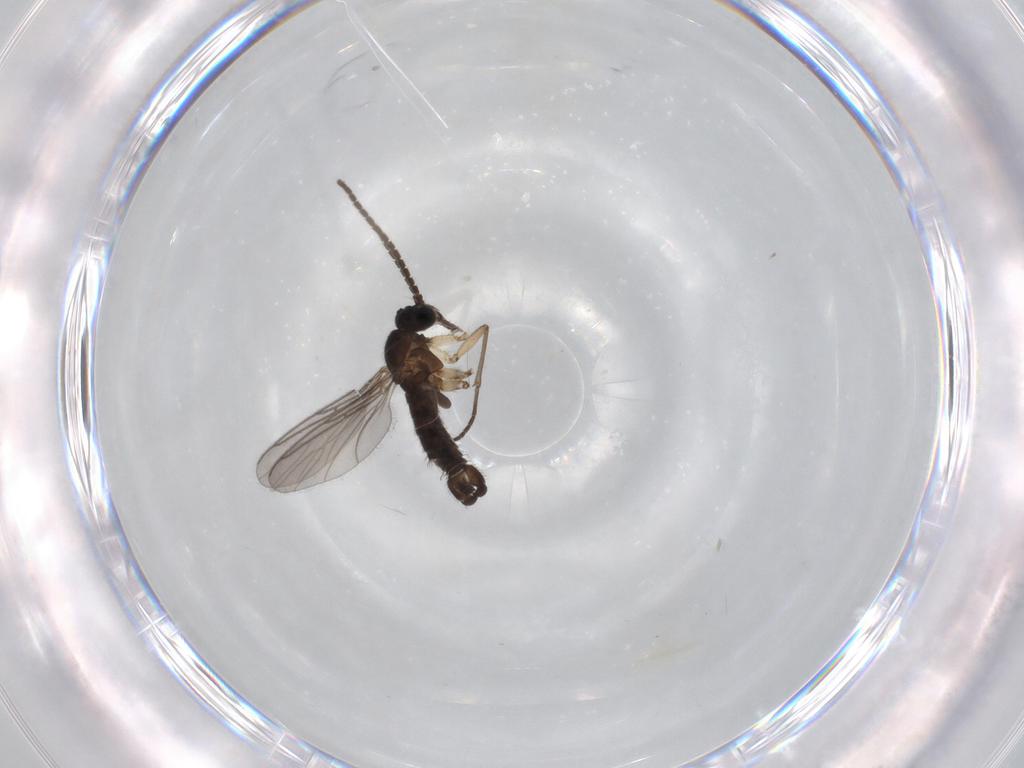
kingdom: Animalia
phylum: Arthropoda
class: Insecta
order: Diptera
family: Sciaridae
